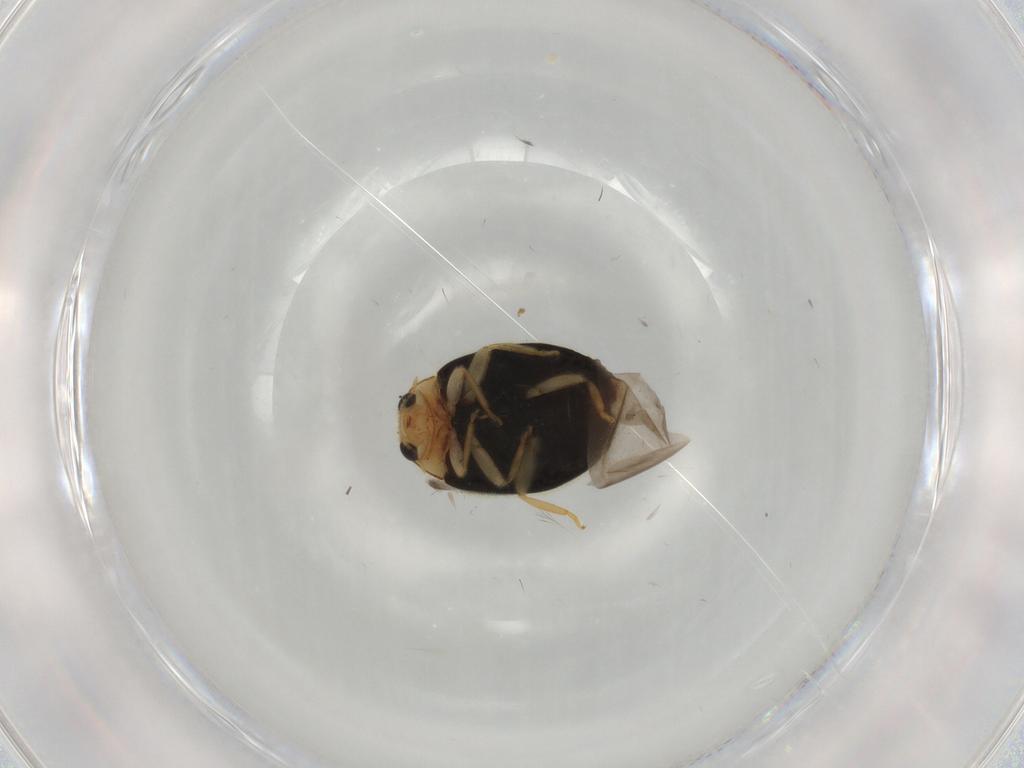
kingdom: Animalia
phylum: Arthropoda
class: Insecta
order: Coleoptera
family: Coccinellidae
